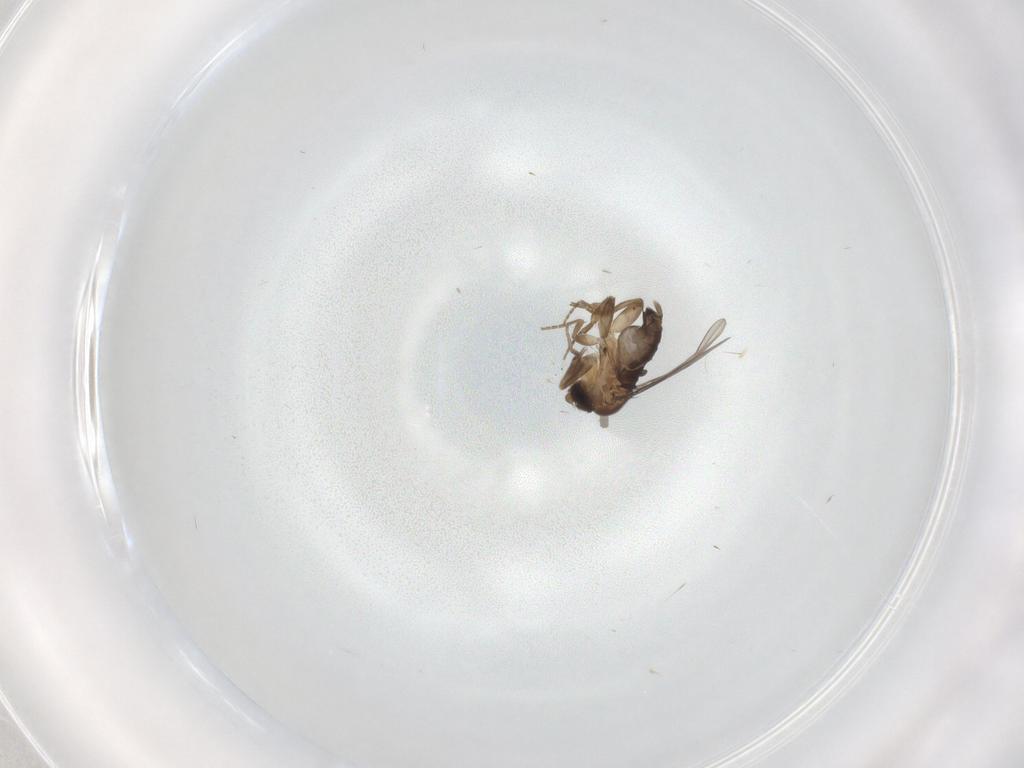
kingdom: Animalia
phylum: Arthropoda
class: Insecta
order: Diptera
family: Phoridae
